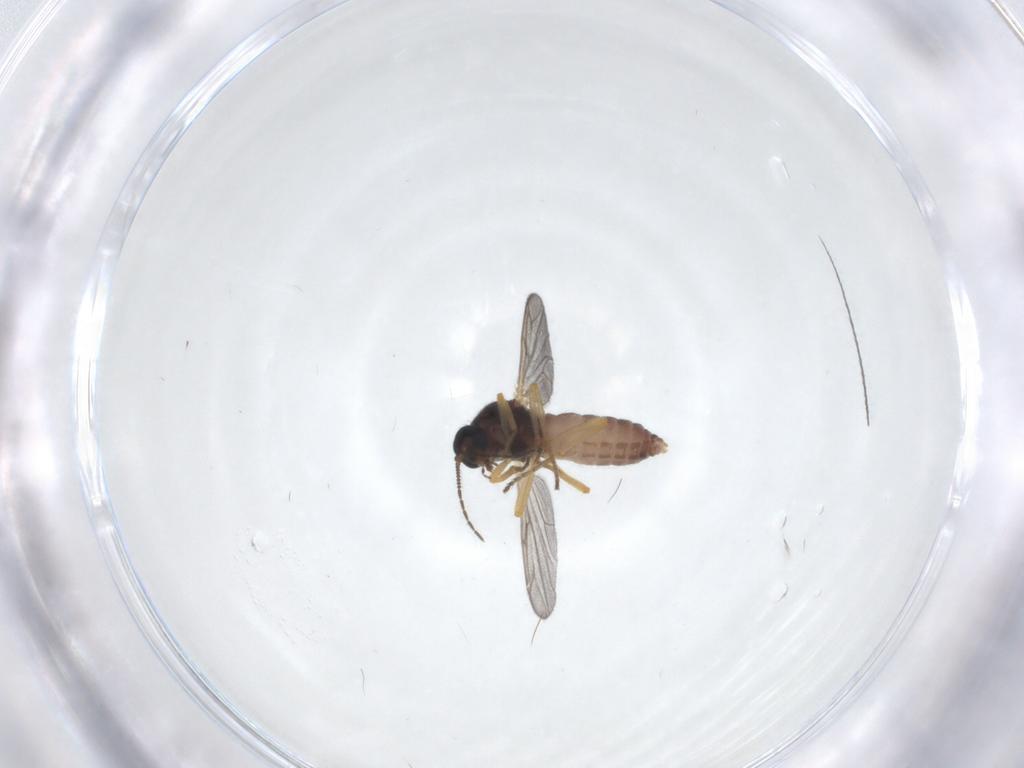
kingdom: Animalia
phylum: Arthropoda
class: Insecta
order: Diptera
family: Ceratopogonidae
